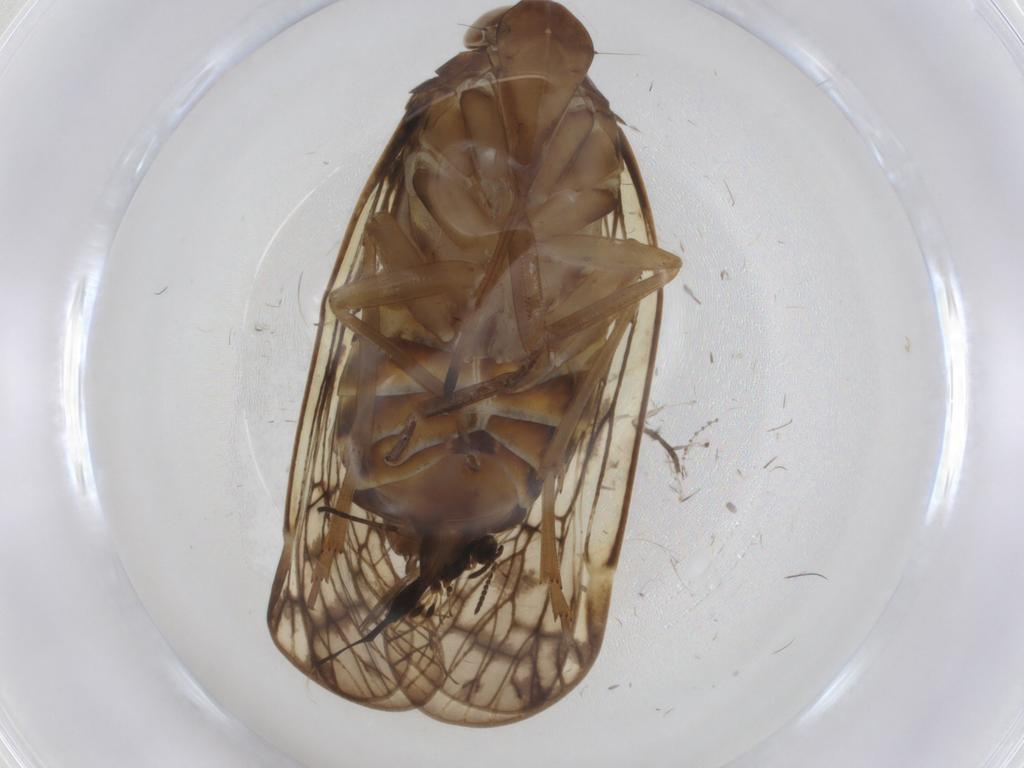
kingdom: Animalia
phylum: Arthropoda
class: Insecta
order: Hemiptera
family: Cixiidae
